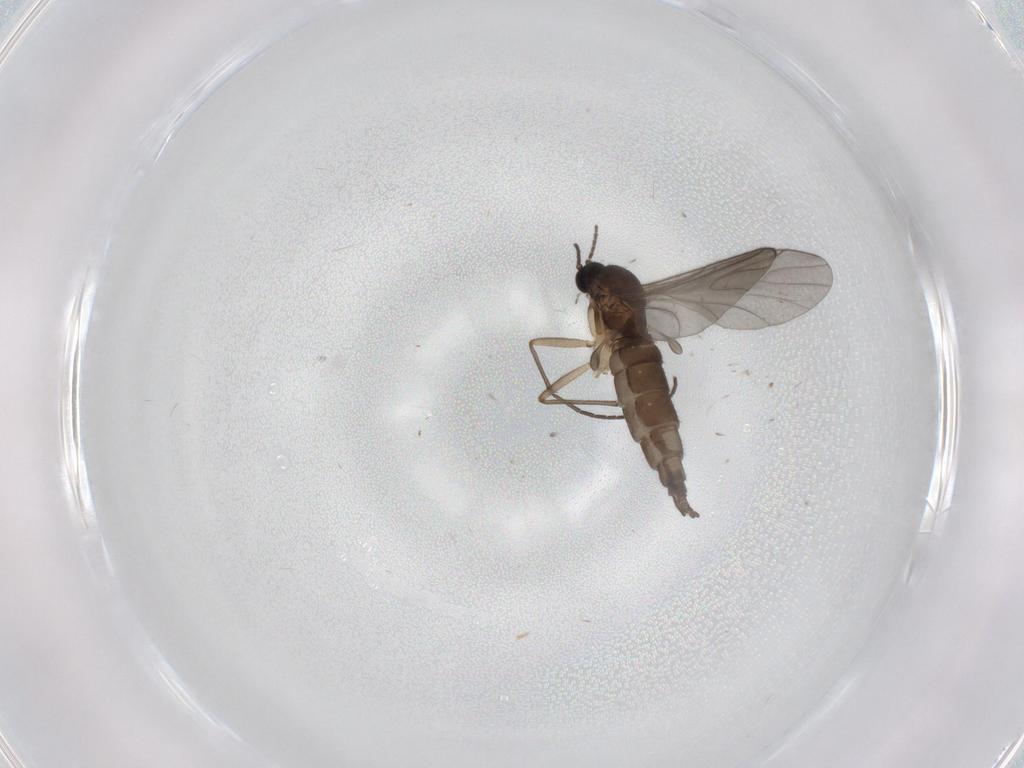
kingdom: Animalia
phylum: Arthropoda
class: Insecta
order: Diptera
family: Sciaridae
